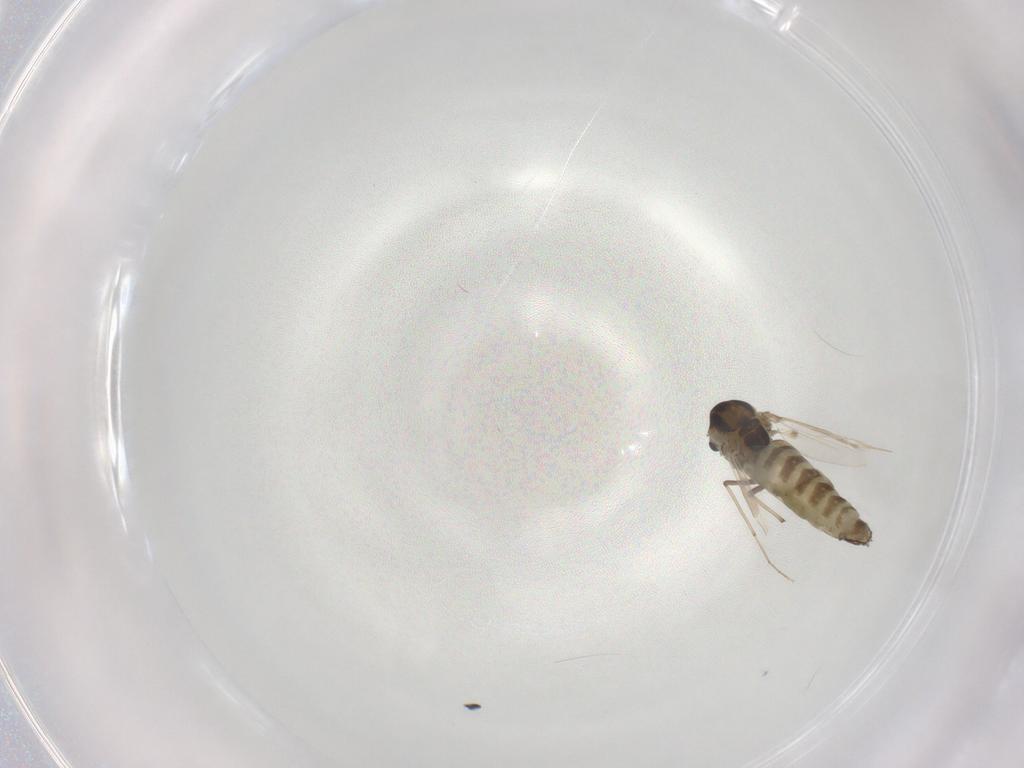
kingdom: Animalia
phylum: Arthropoda
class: Insecta
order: Diptera
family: Chironomidae
